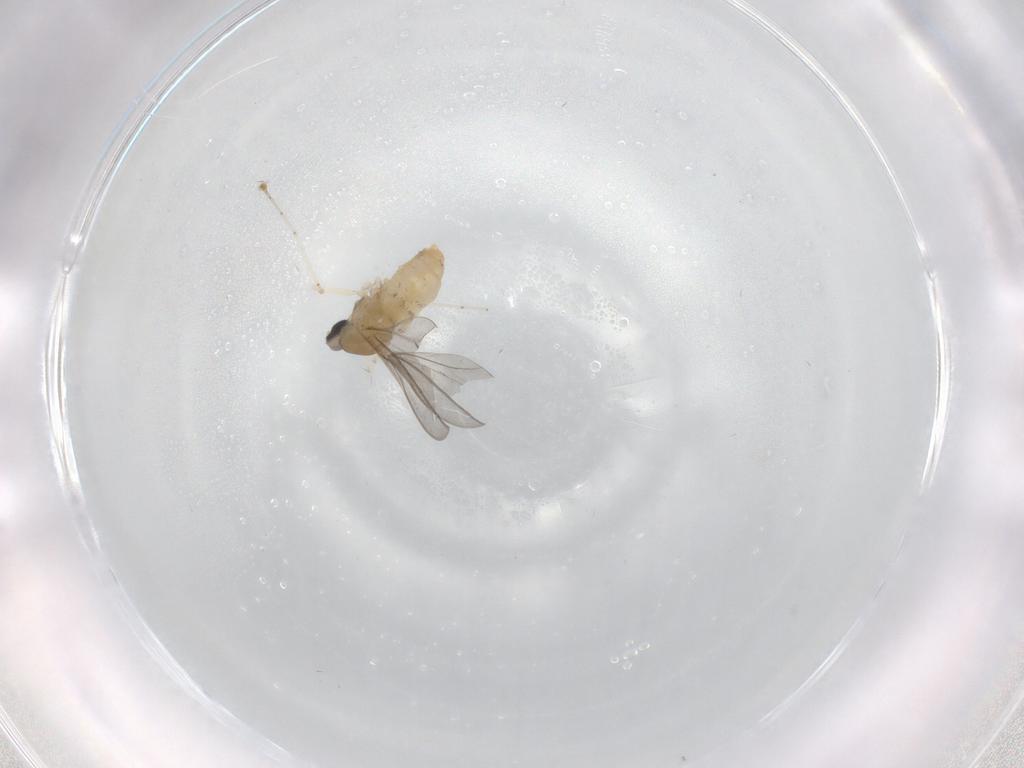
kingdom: Animalia
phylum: Arthropoda
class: Insecta
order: Diptera
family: Cecidomyiidae
